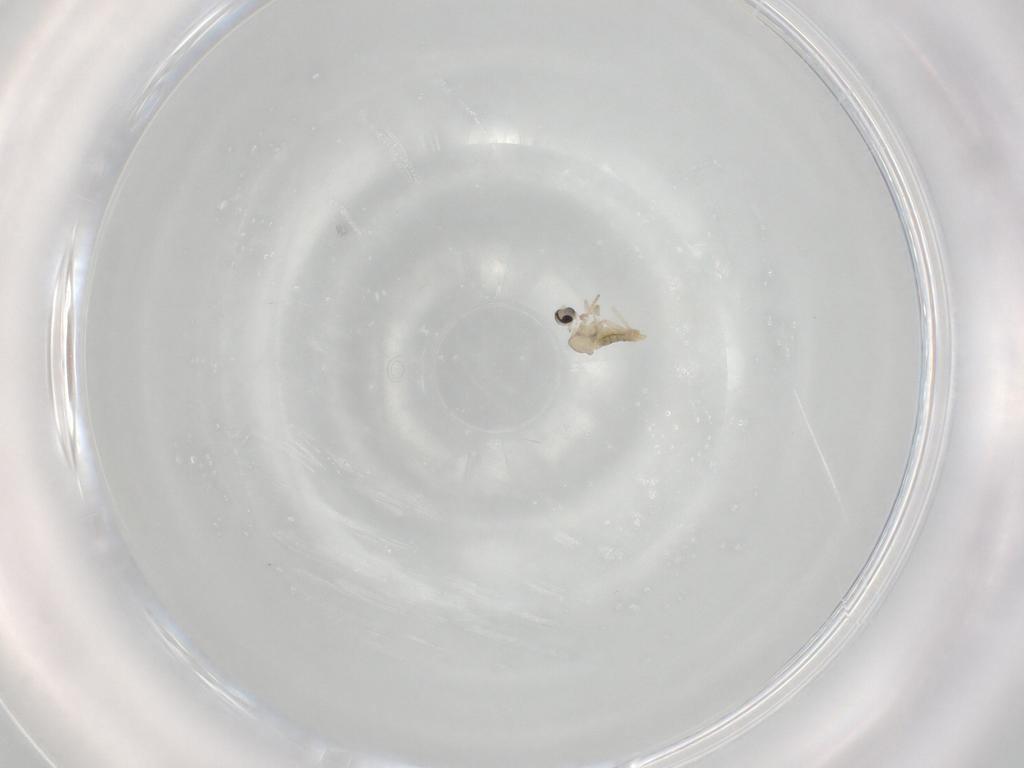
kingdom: Animalia
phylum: Arthropoda
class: Insecta
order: Diptera
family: Cecidomyiidae
